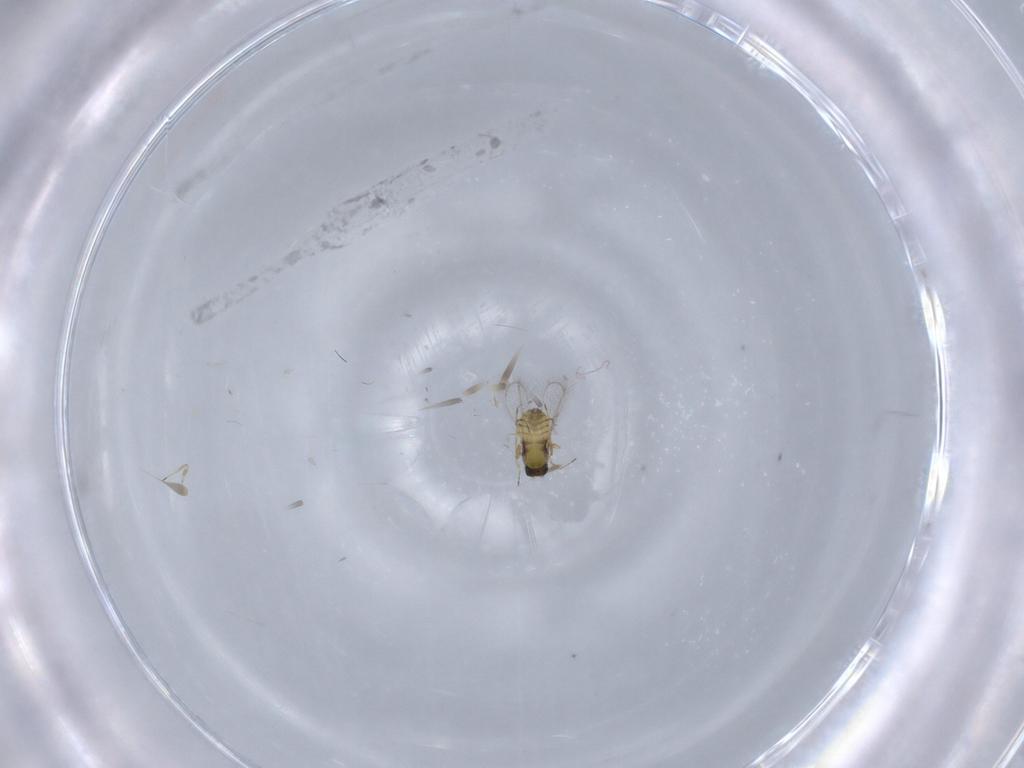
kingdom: Animalia
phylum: Arthropoda
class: Insecta
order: Hymenoptera
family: Trichogrammatidae
